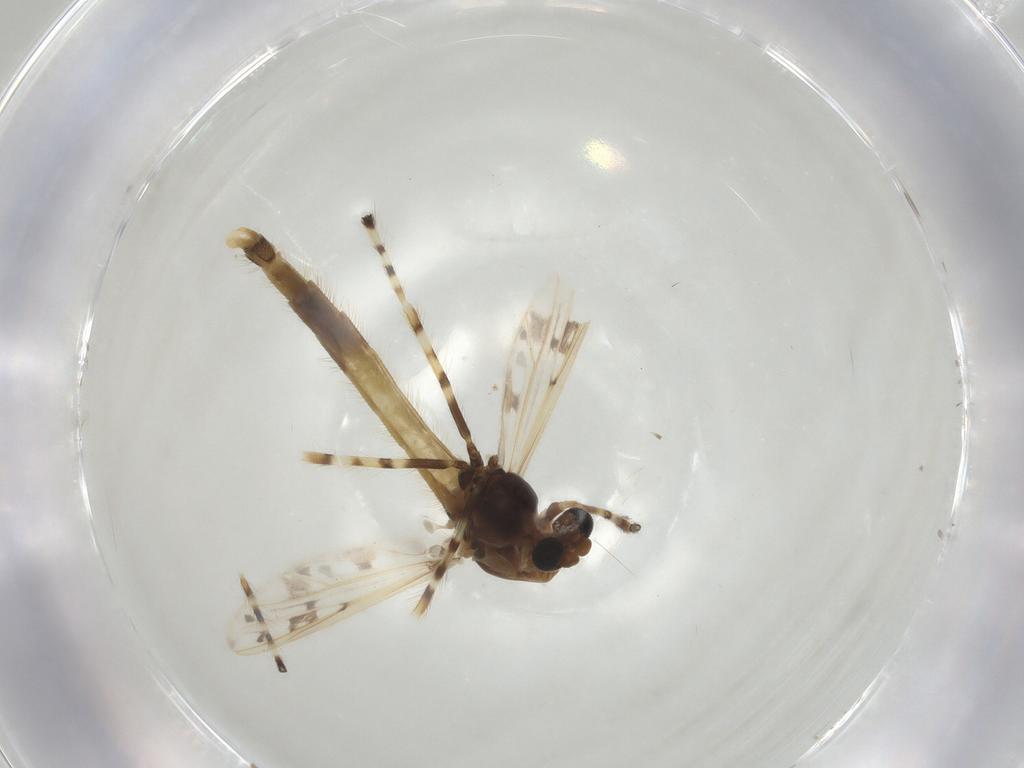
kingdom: Animalia
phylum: Arthropoda
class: Insecta
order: Diptera
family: Chironomidae
